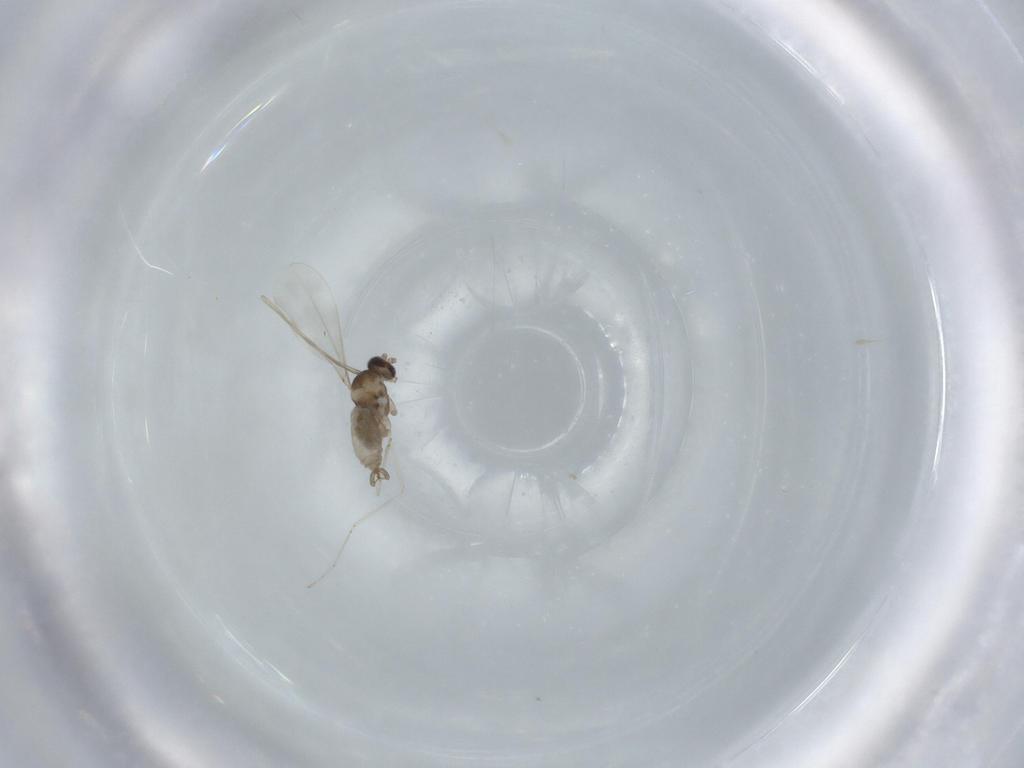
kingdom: Animalia
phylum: Arthropoda
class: Insecta
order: Diptera
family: Cecidomyiidae
